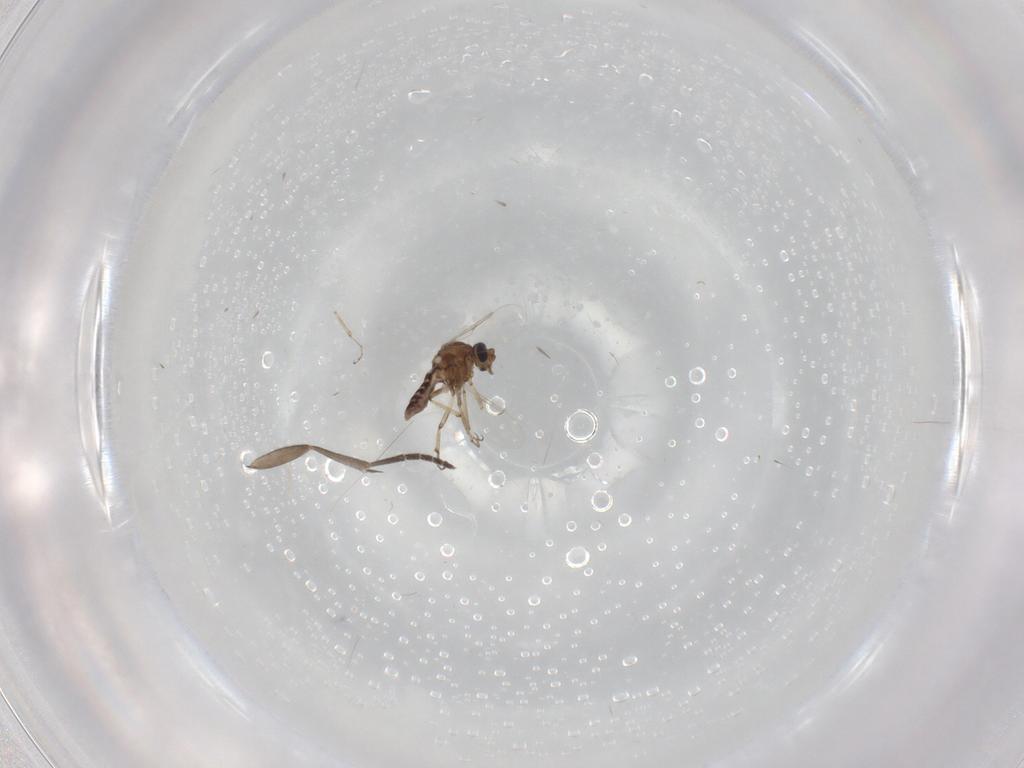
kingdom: Animalia
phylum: Arthropoda
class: Insecta
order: Diptera
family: Ceratopogonidae
